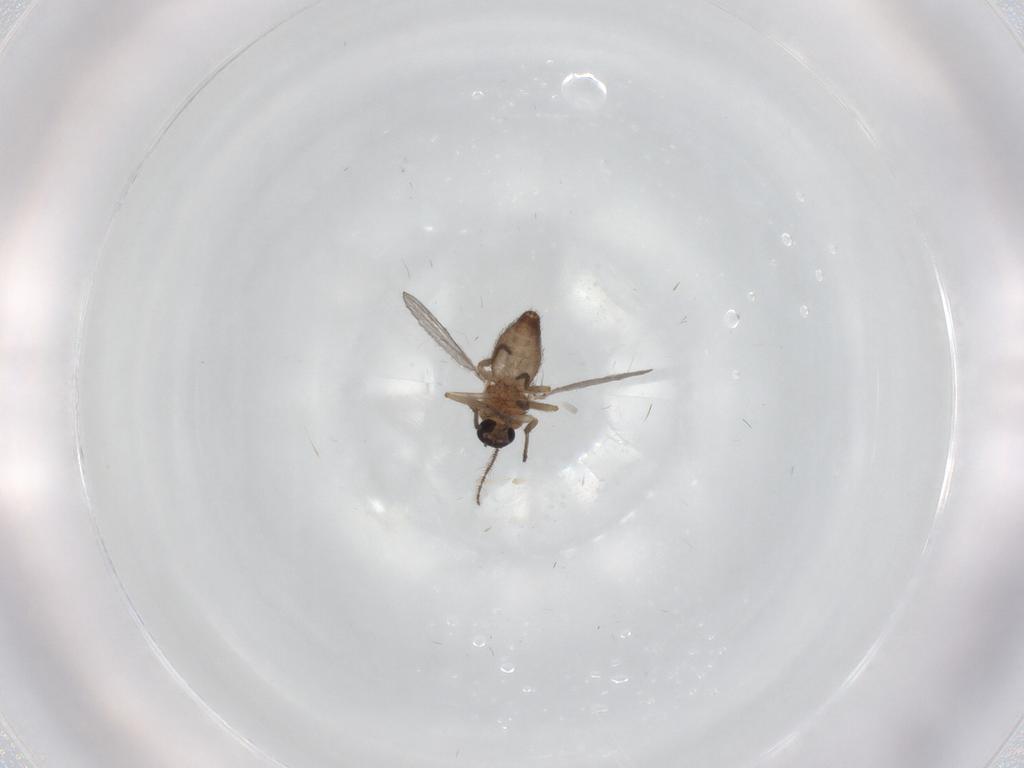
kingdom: Animalia
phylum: Arthropoda
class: Insecta
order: Diptera
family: Ceratopogonidae
